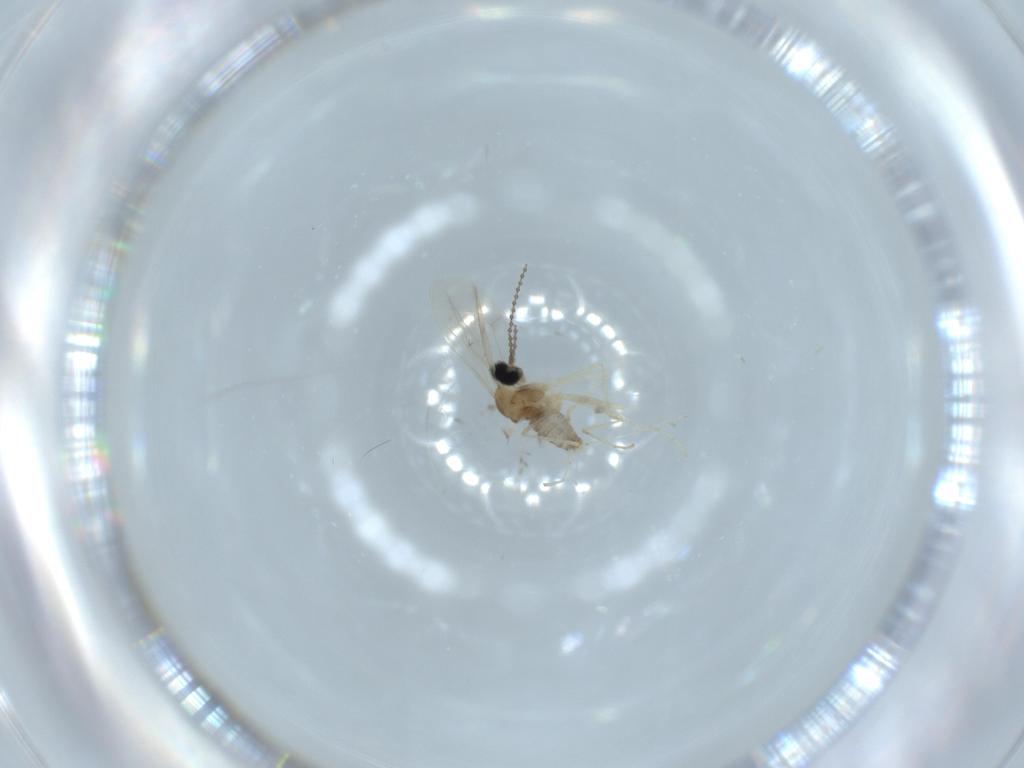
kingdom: Animalia
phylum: Arthropoda
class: Insecta
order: Diptera
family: Cecidomyiidae
